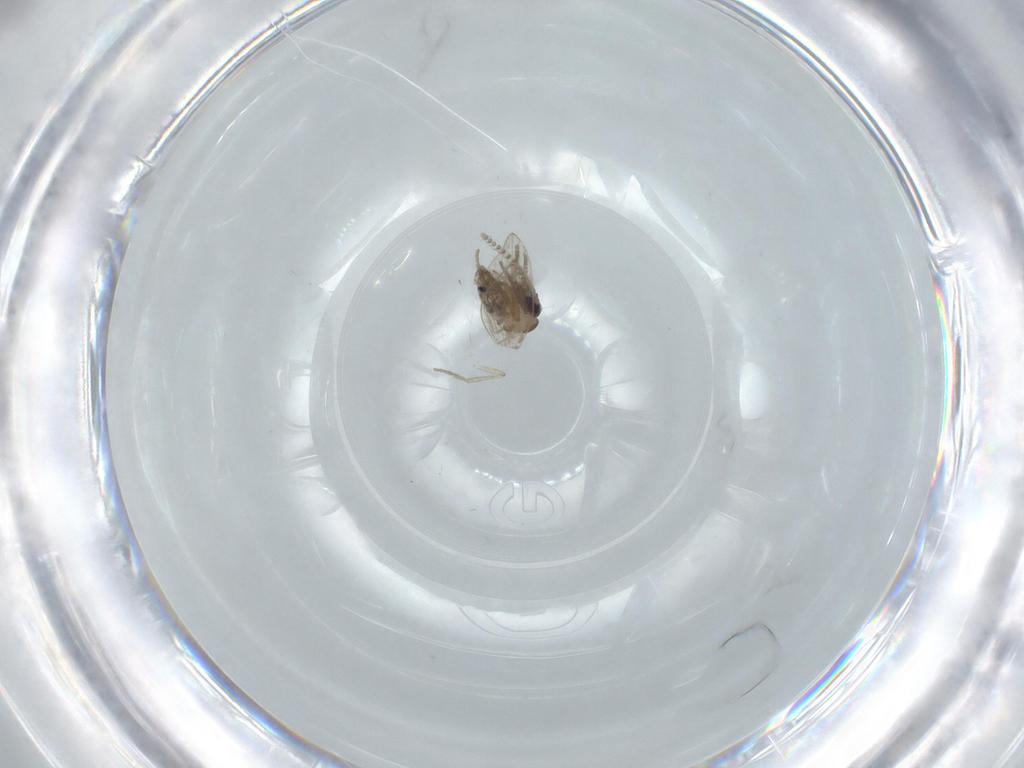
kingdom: Animalia
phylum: Arthropoda
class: Insecta
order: Diptera
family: Psychodidae
